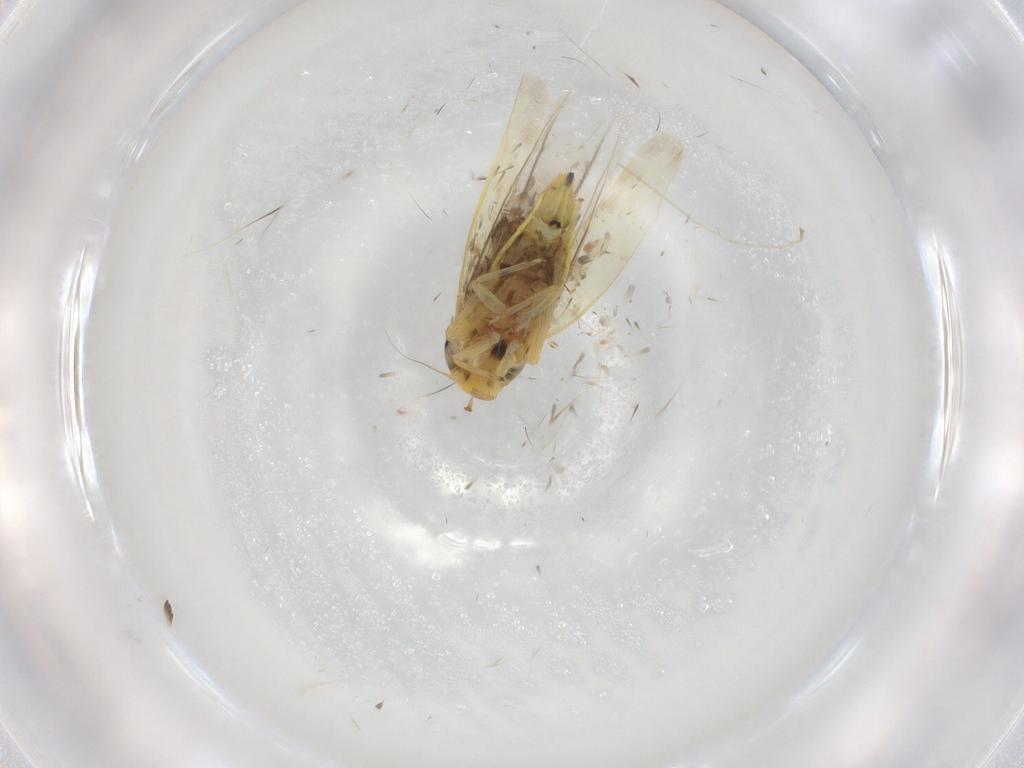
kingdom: Animalia
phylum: Arthropoda
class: Insecta
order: Hemiptera
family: Cicadellidae
